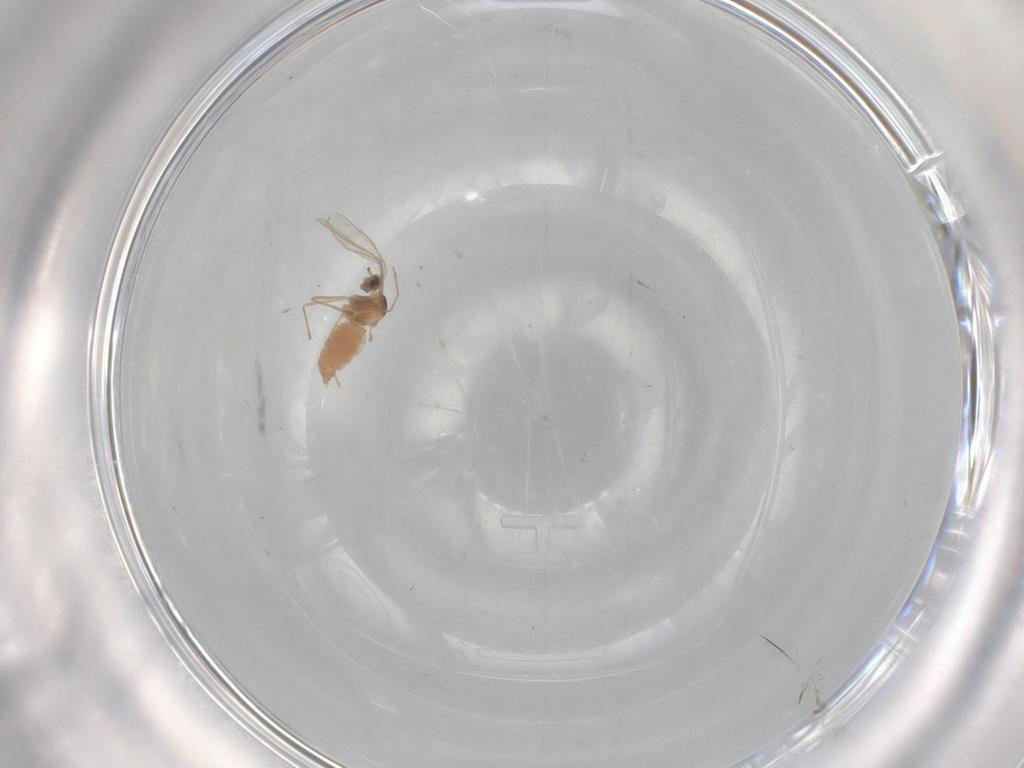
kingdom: Animalia
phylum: Arthropoda
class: Insecta
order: Diptera
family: Chironomidae
